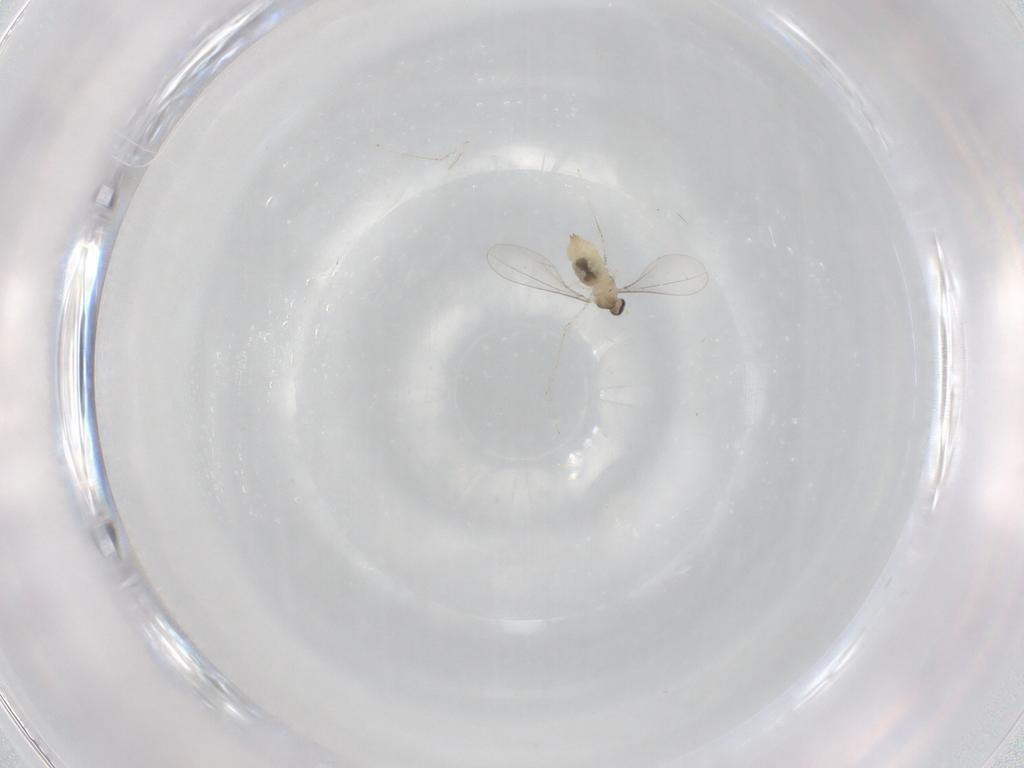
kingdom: Animalia
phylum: Arthropoda
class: Insecta
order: Diptera
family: Cecidomyiidae
